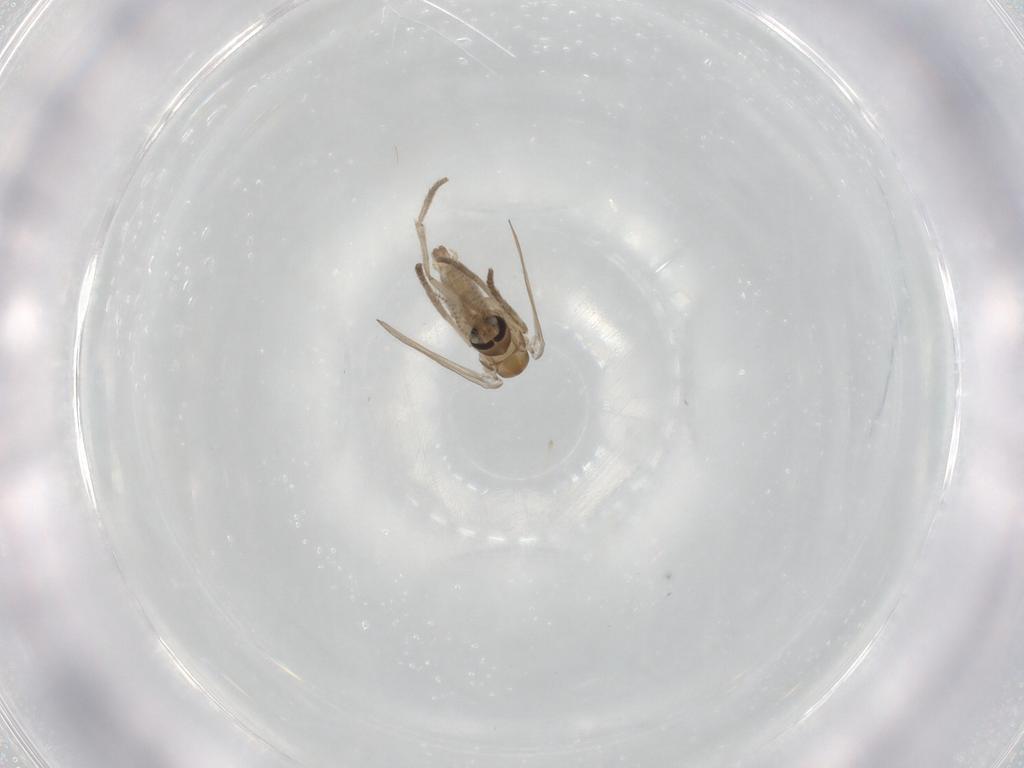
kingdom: Animalia
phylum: Arthropoda
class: Insecta
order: Diptera
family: Psychodidae
